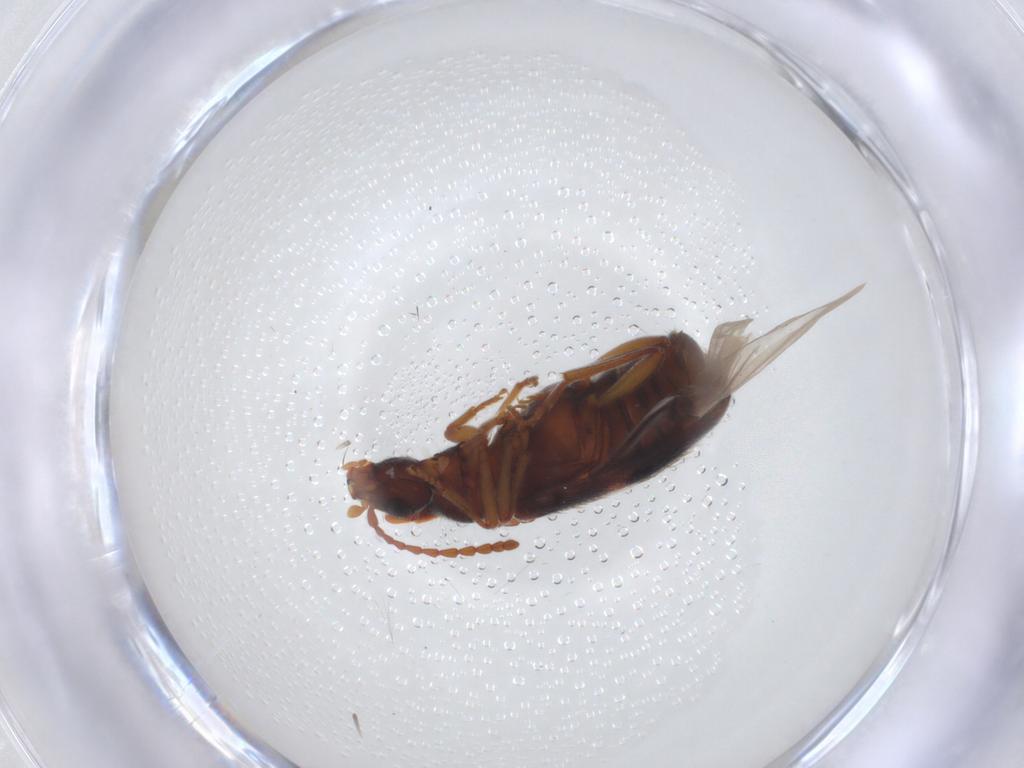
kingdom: Animalia
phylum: Arthropoda
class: Insecta
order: Coleoptera
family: Anthicidae
